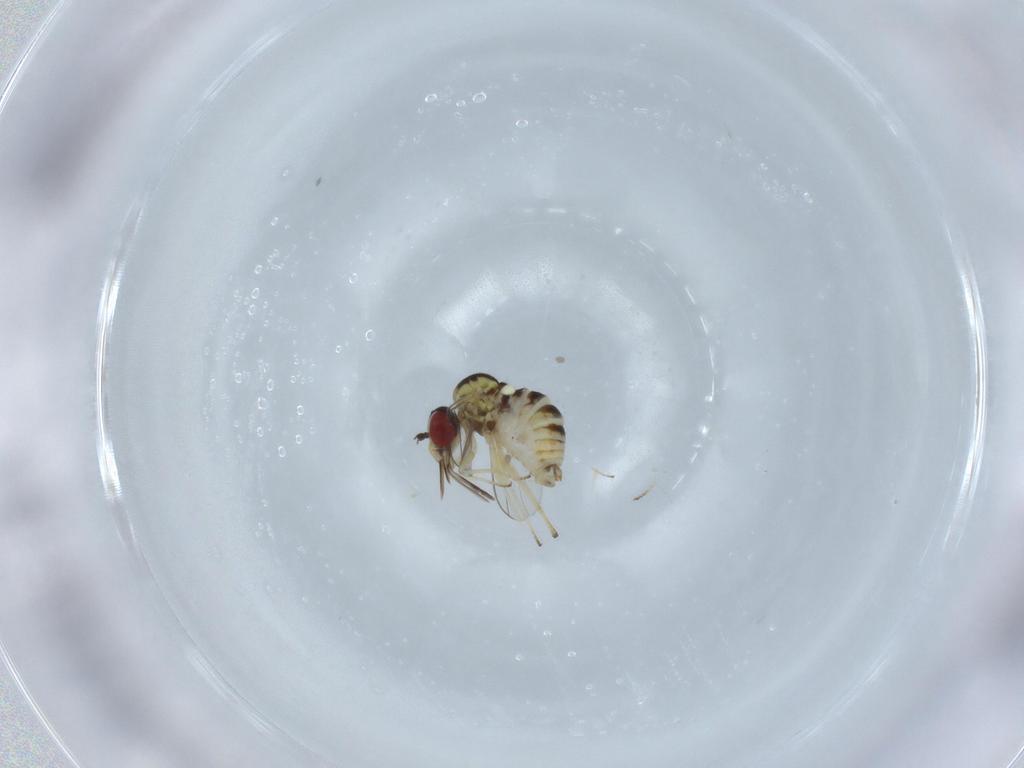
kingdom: Animalia
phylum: Arthropoda
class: Insecta
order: Diptera
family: Bombyliidae
